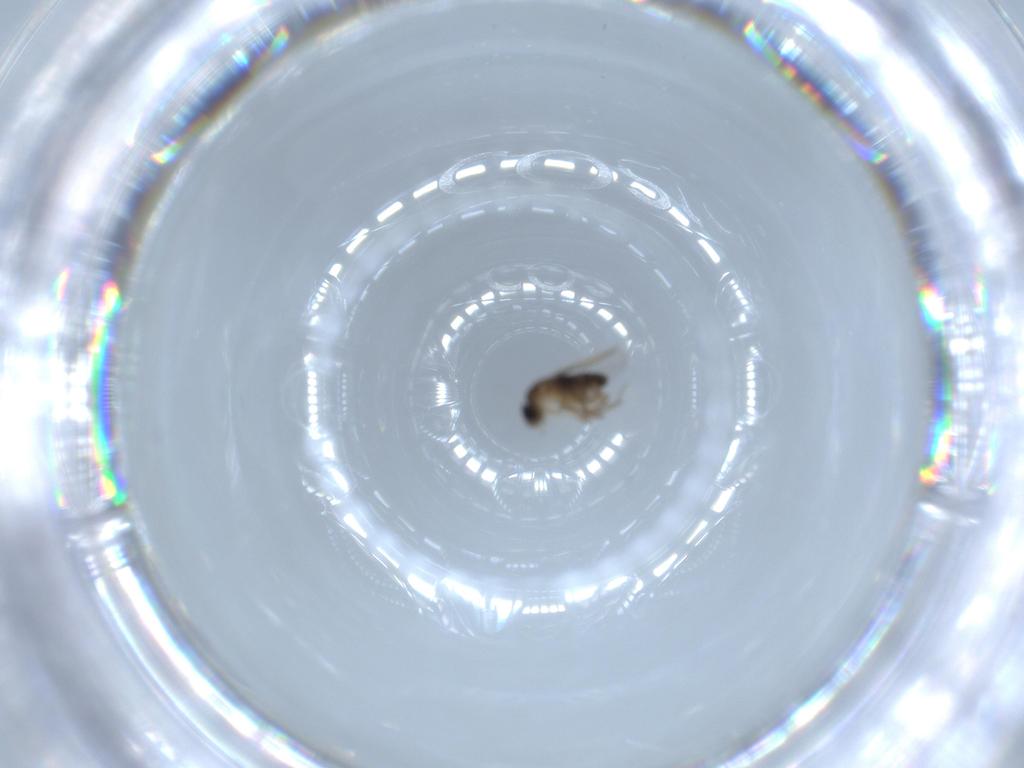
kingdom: Animalia
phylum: Arthropoda
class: Insecta
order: Diptera
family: Phoridae
